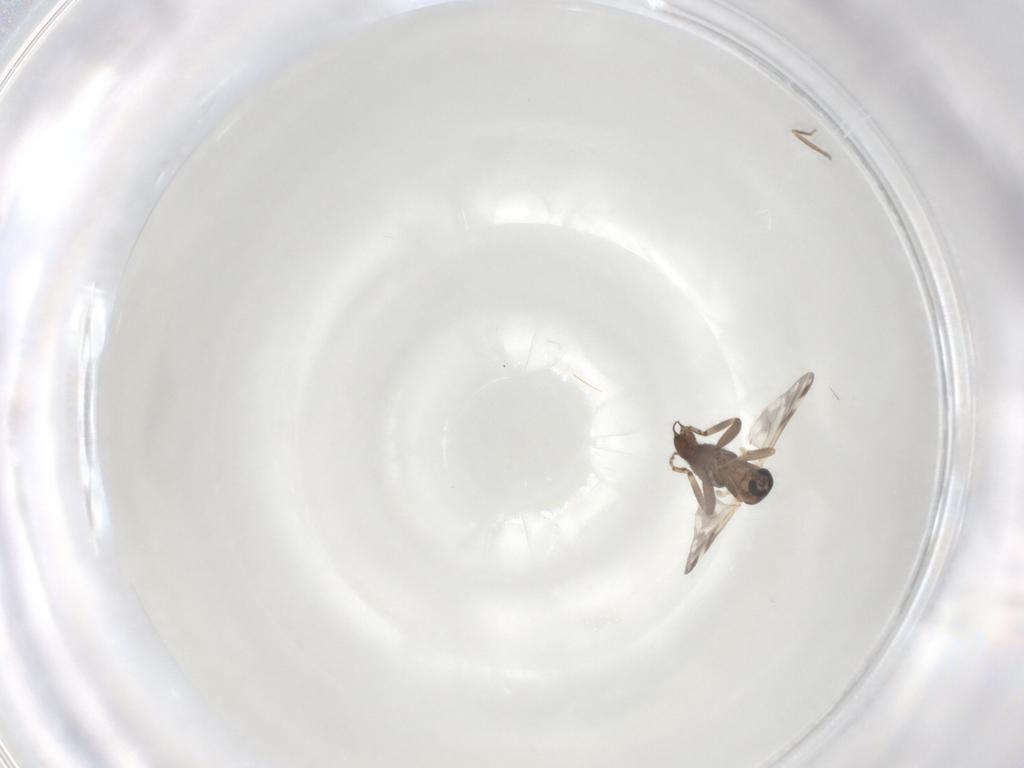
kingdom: Animalia
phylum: Arthropoda
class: Insecta
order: Diptera
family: Ceratopogonidae
